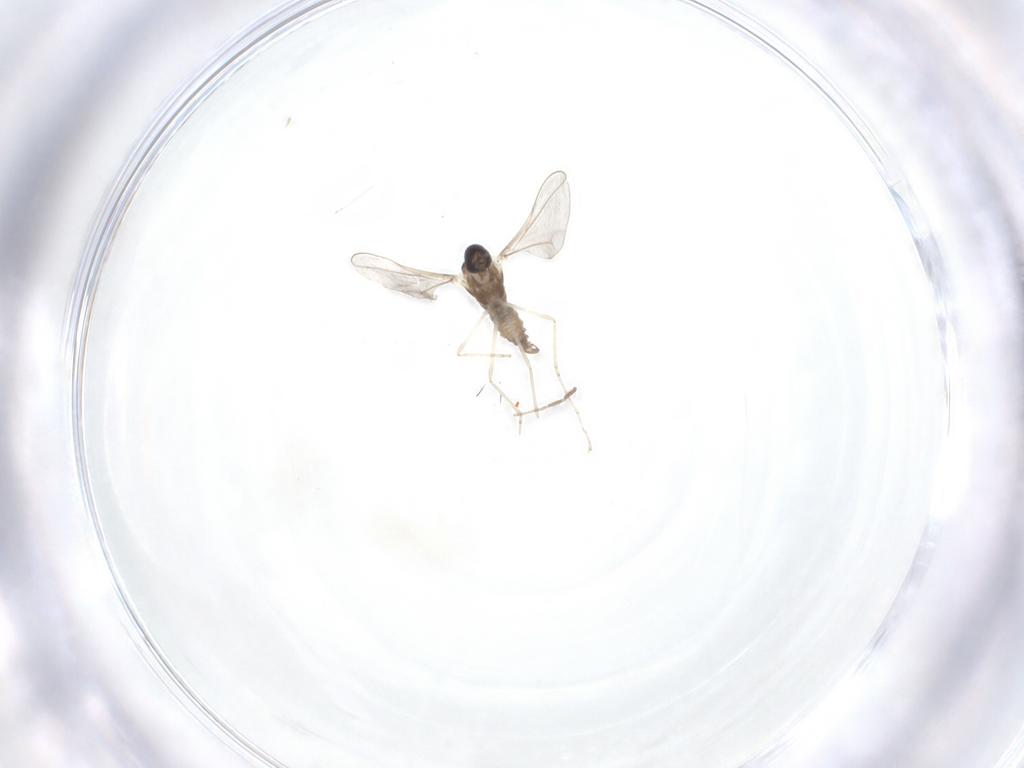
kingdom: Animalia
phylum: Arthropoda
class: Insecta
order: Diptera
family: Cecidomyiidae
